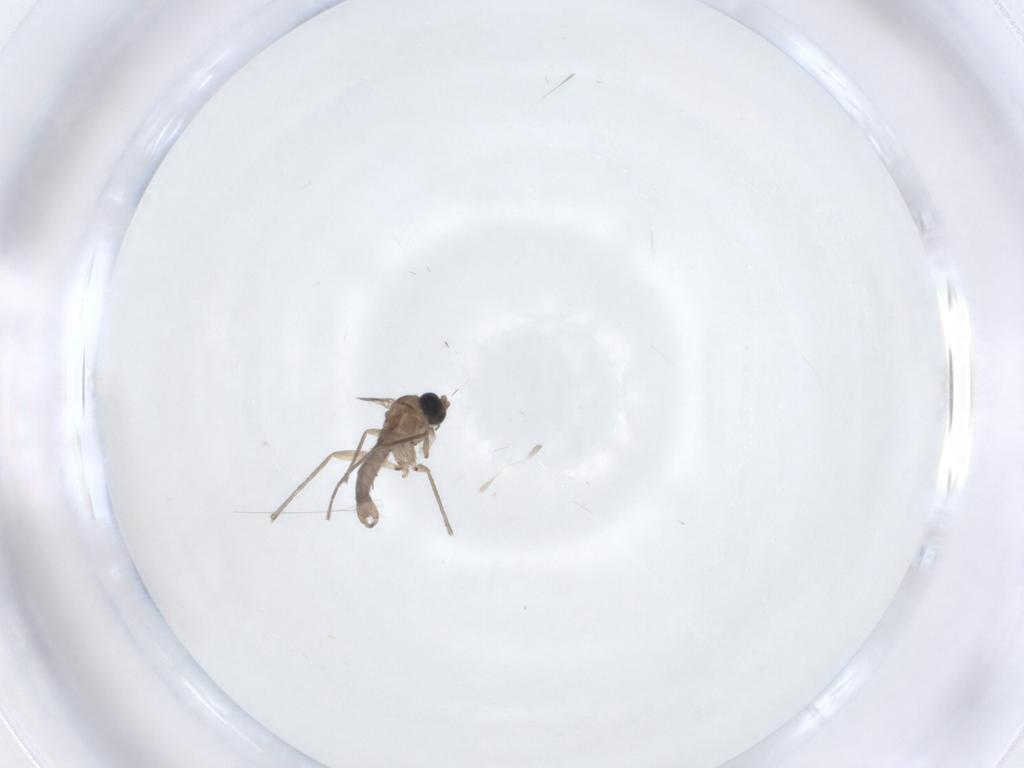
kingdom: Animalia
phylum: Arthropoda
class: Insecta
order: Diptera
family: Sciaridae
